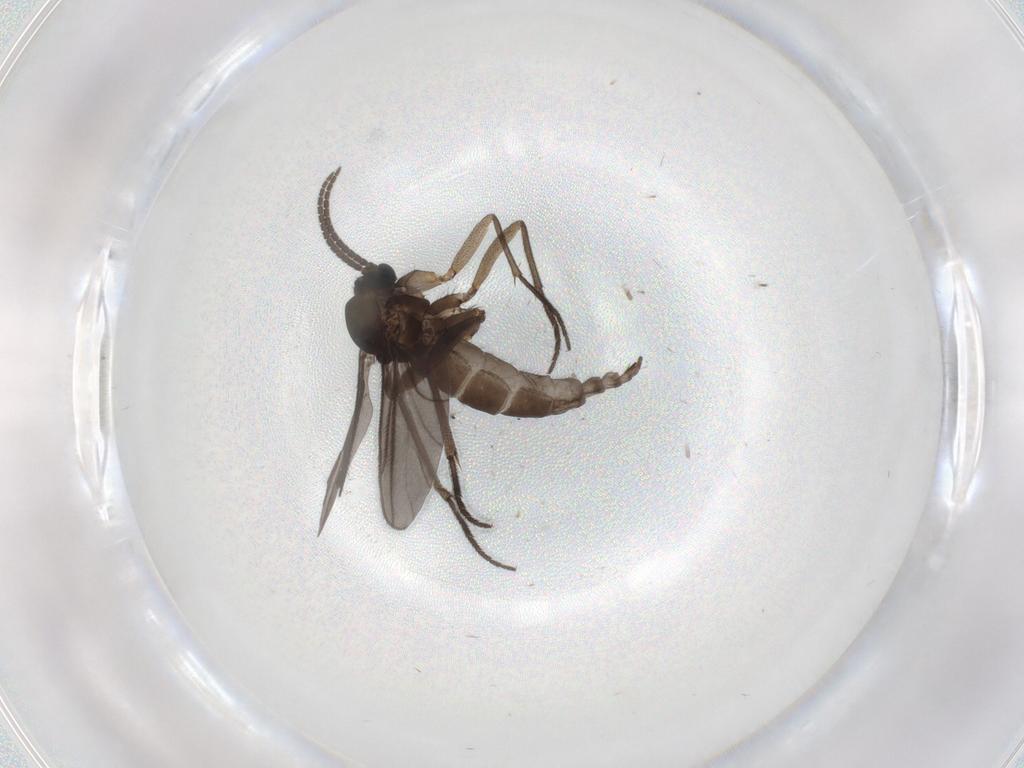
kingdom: Animalia
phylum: Arthropoda
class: Insecta
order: Diptera
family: Sciaridae
